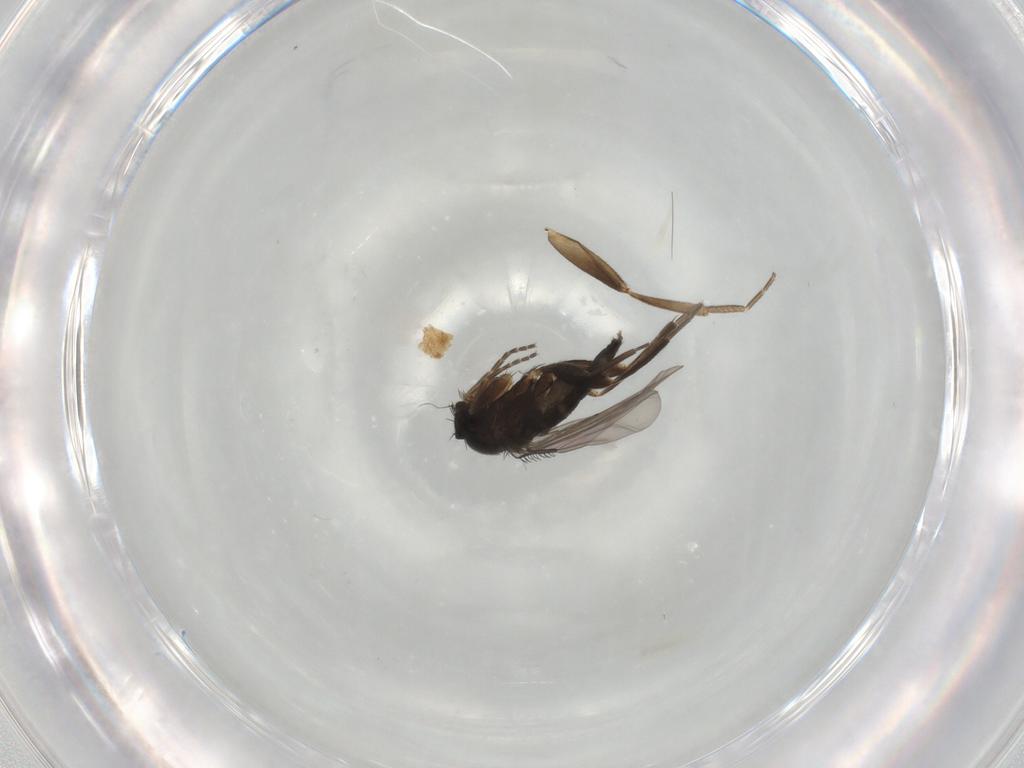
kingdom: Animalia
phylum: Arthropoda
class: Insecta
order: Diptera
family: Phoridae
